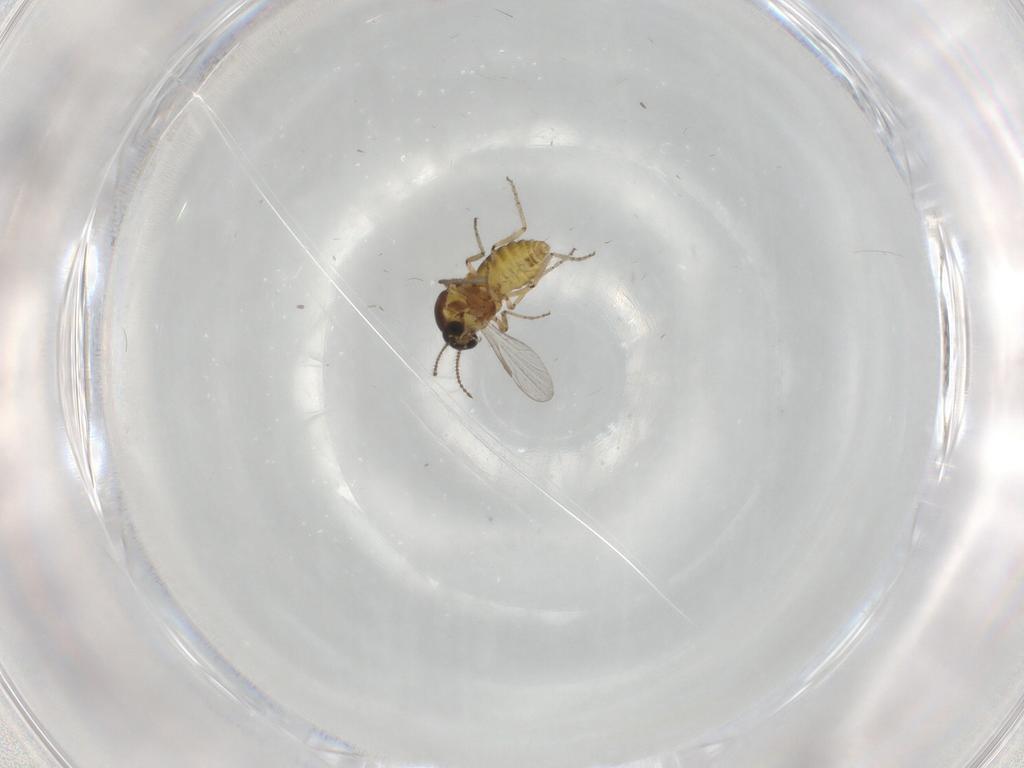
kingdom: Animalia
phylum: Arthropoda
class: Insecta
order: Diptera
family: Ceratopogonidae
